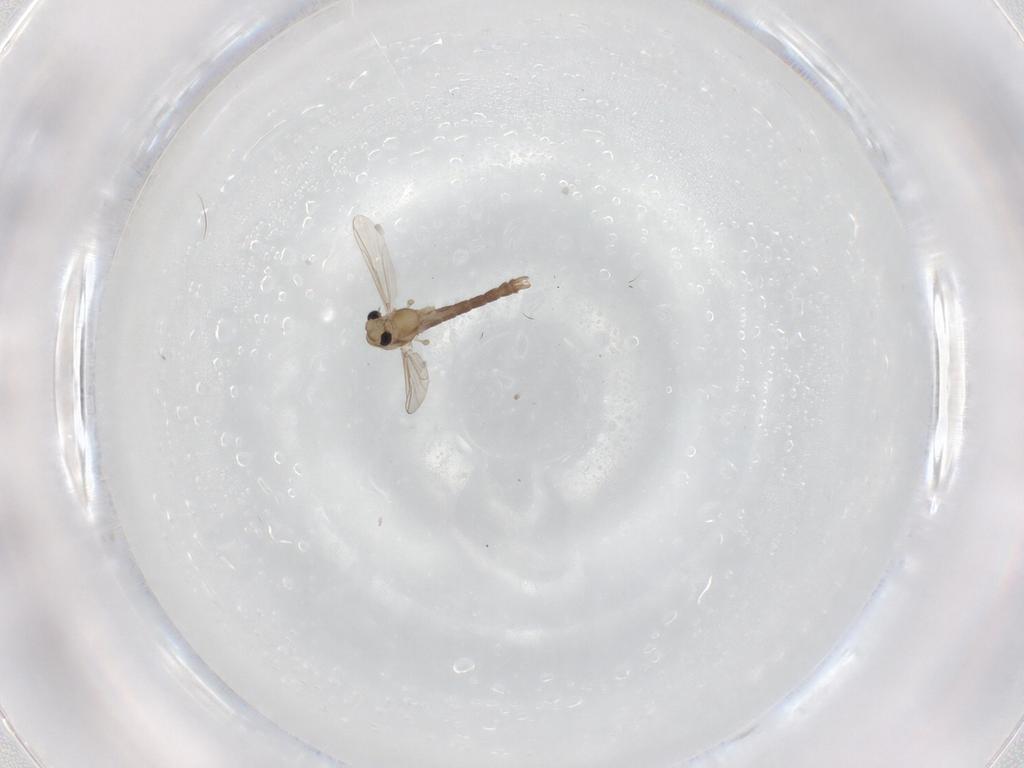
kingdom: Animalia
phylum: Arthropoda
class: Insecta
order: Diptera
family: Chironomidae
